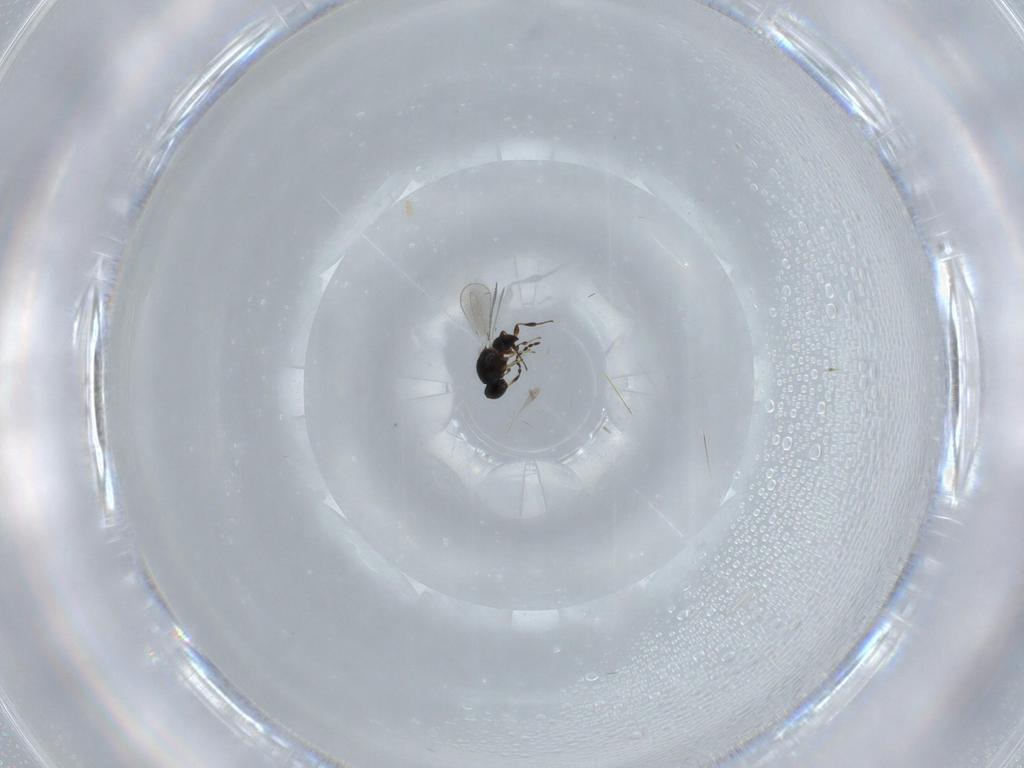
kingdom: Animalia
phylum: Arthropoda
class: Insecta
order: Hymenoptera
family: Platygastridae
